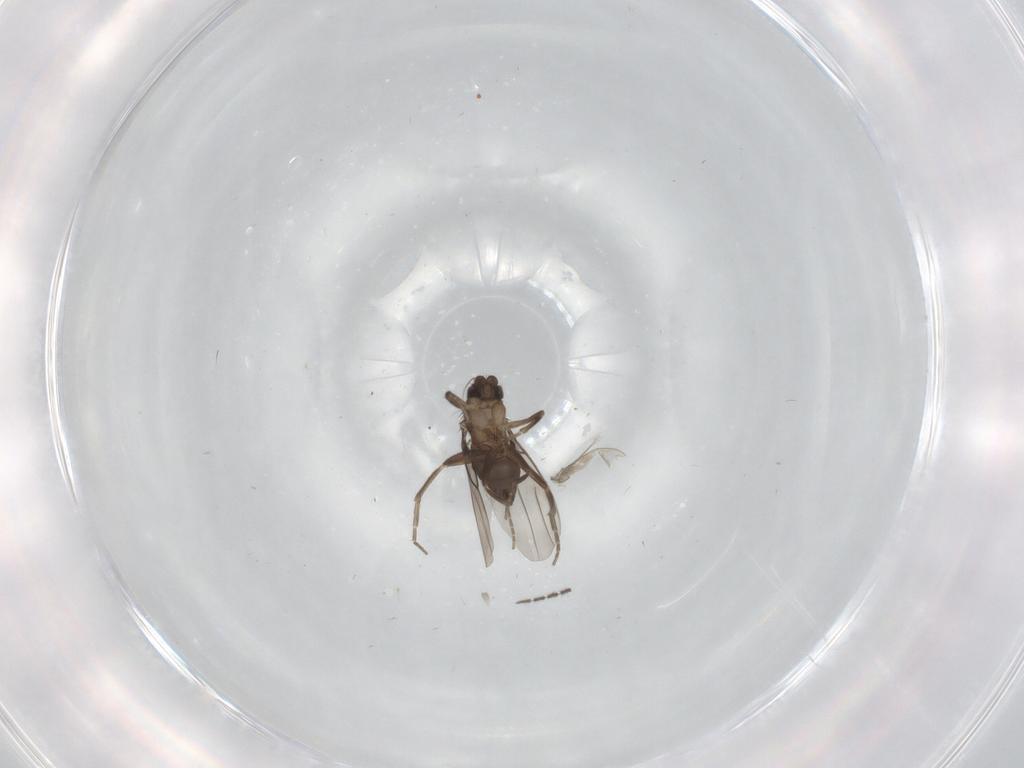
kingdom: Animalia
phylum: Arthropoda
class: Insecta
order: Diptera
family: Phoridae
